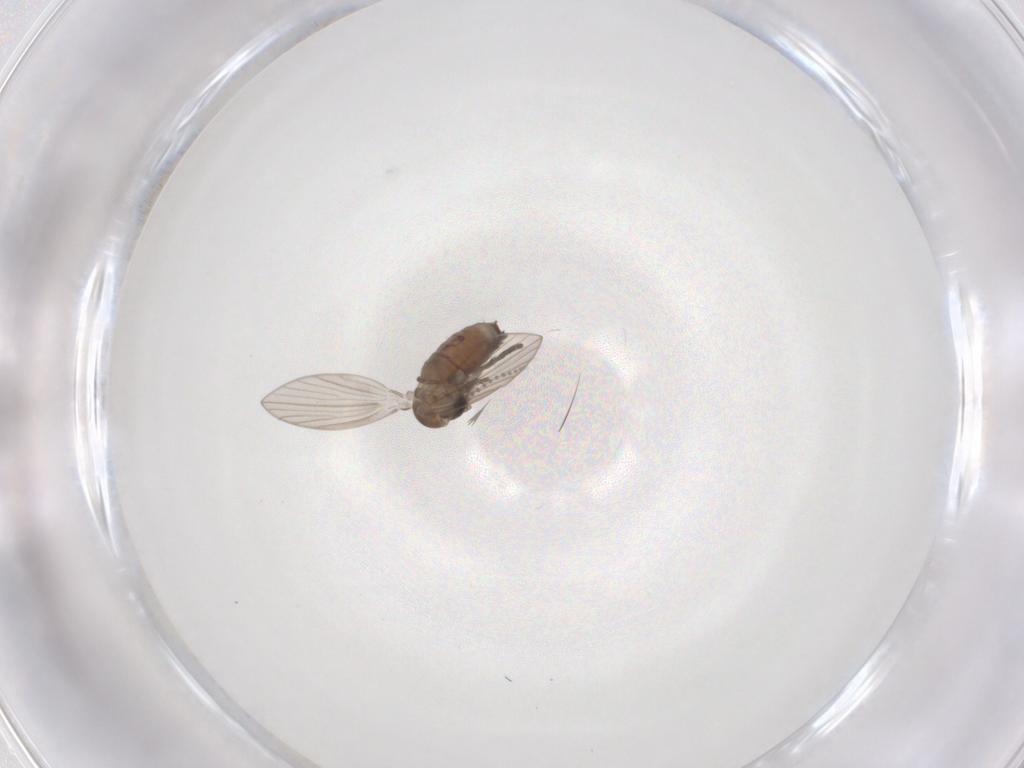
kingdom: Animalia
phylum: Arthropoda
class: Insecta
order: Diptera
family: Psychodidae
